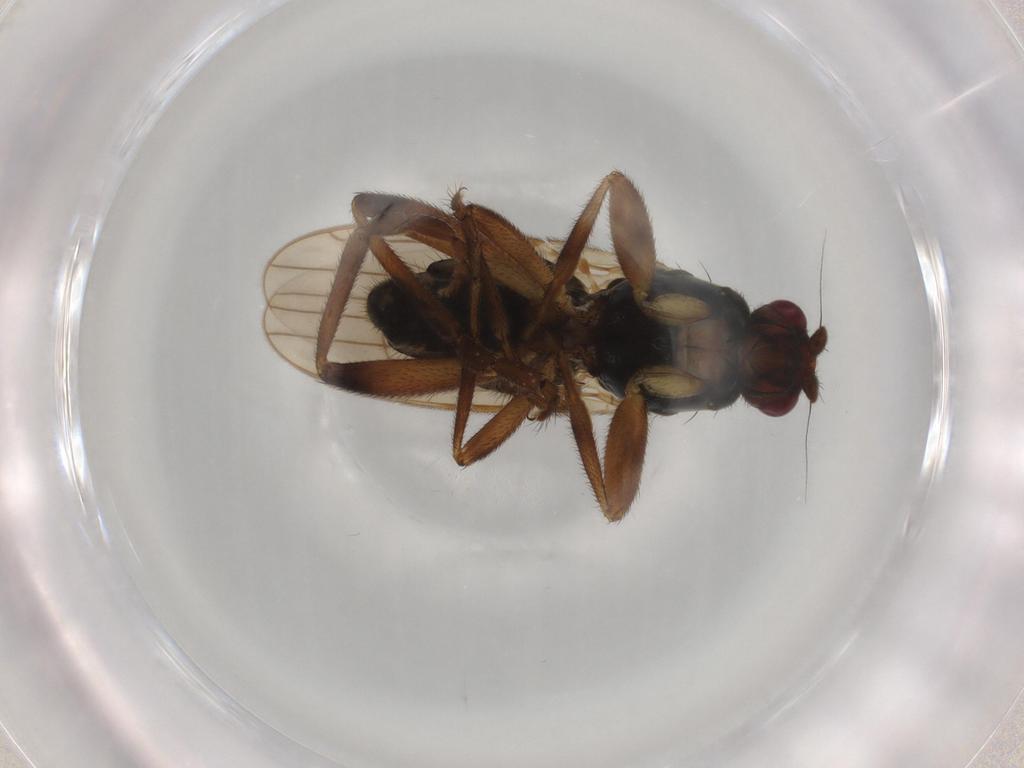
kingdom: Animalia
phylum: Arthropoda
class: Insecta
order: Diptera
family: Sphaeroceridae
